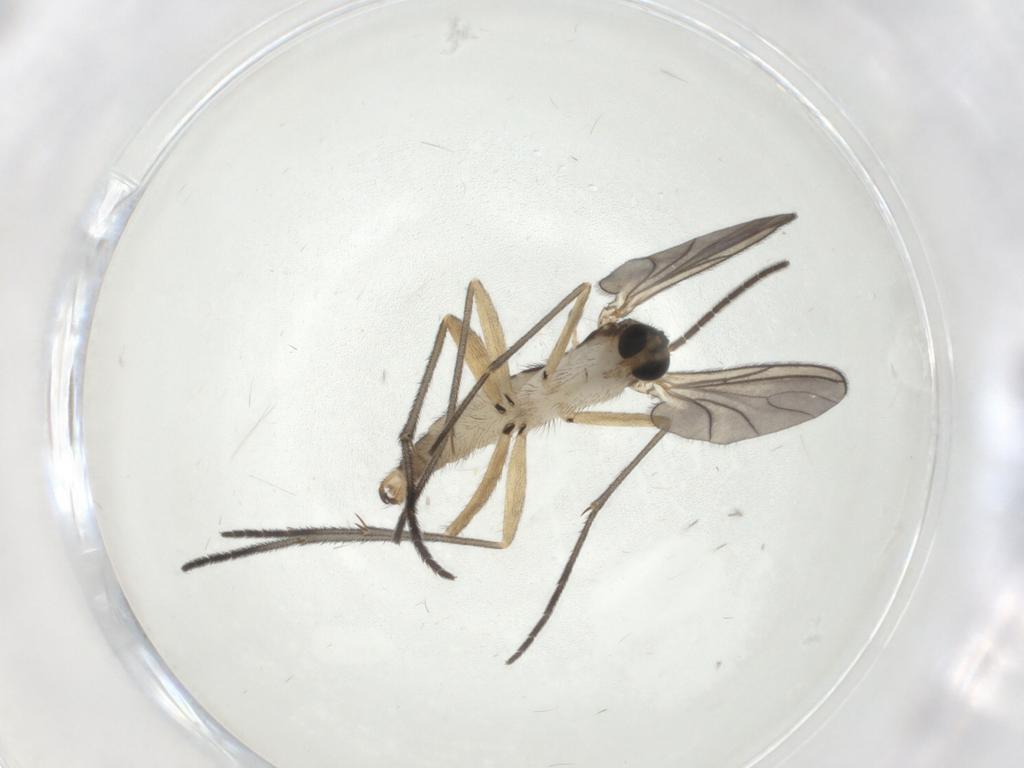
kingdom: Animalia
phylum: Arthropoda
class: Insecta
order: Diptera
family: Sciaridae
